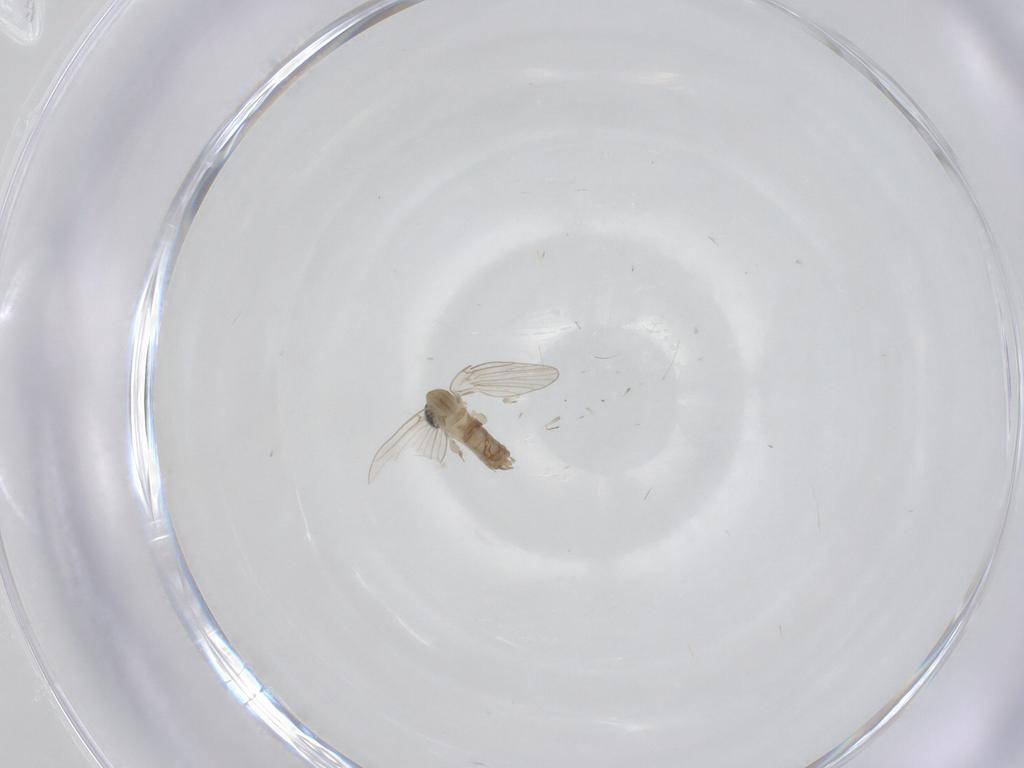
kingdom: Animalia
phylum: Arthropoda
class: Insecta
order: Diptera
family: Psychodidae
